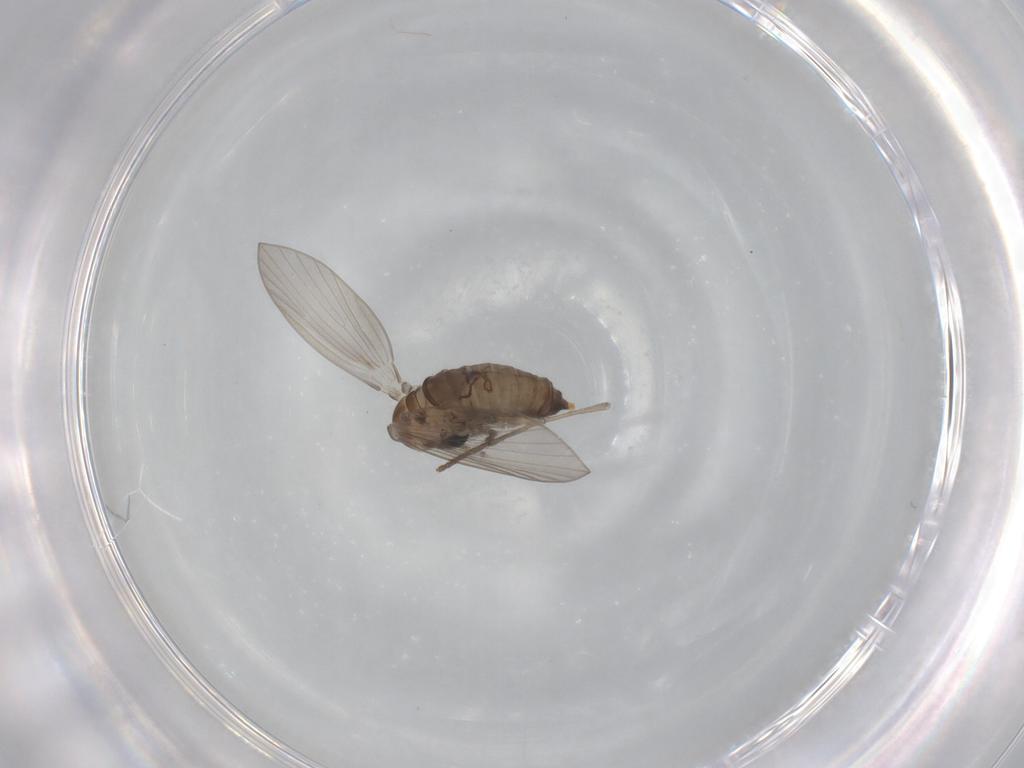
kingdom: Animalia
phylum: Arthropoda
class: Insecta
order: Diptera
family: Psychodidae
